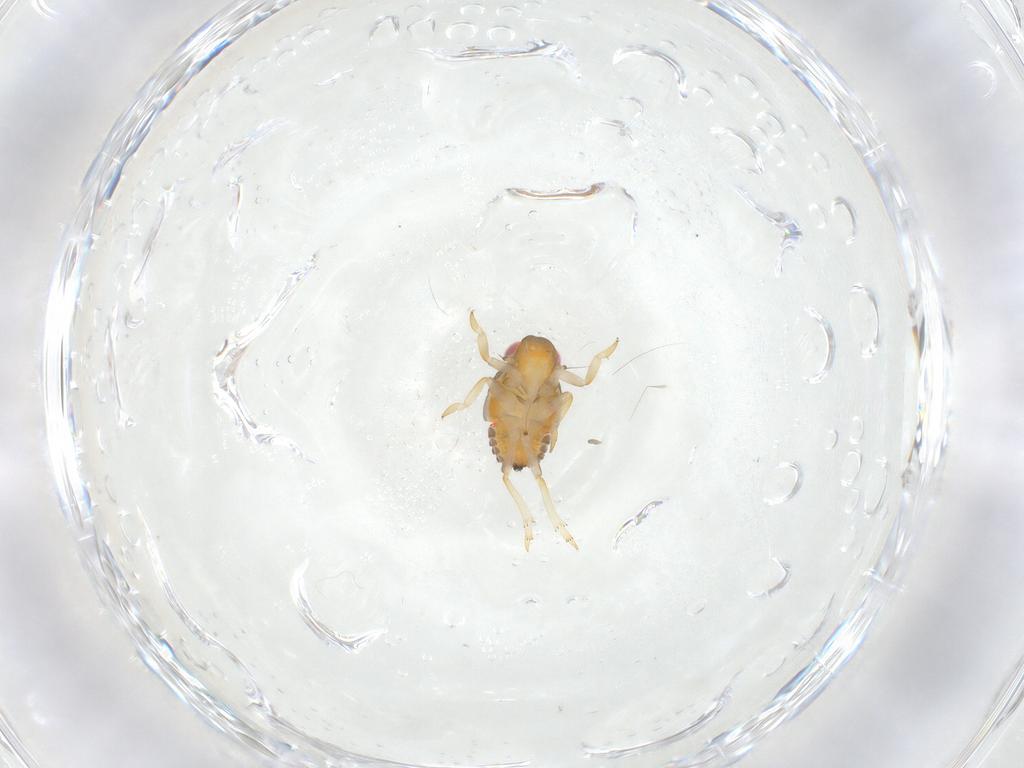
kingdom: Animalia
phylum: Arthropoda
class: Insecta
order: Hemiptera
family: Issidae
